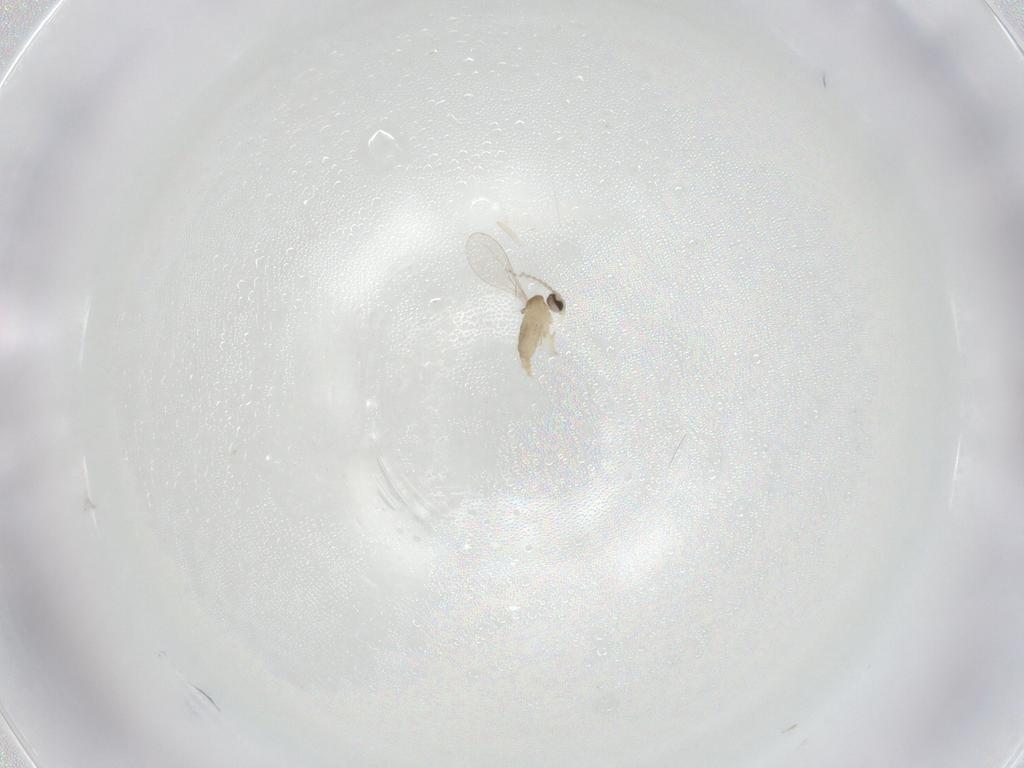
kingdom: Animalia
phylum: Arthropoda
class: Insecta
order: Diptera
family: Cecidomyiidae
